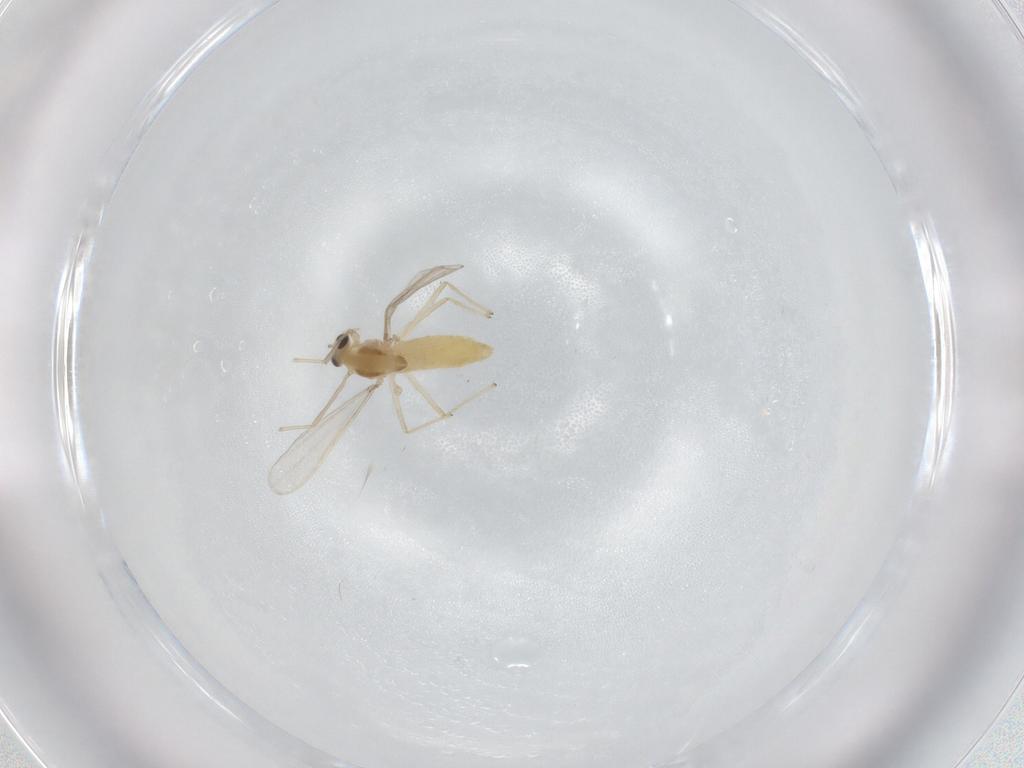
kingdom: Animalia
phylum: Arthropoda
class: Insecta
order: Diptera
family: Chironomidae
